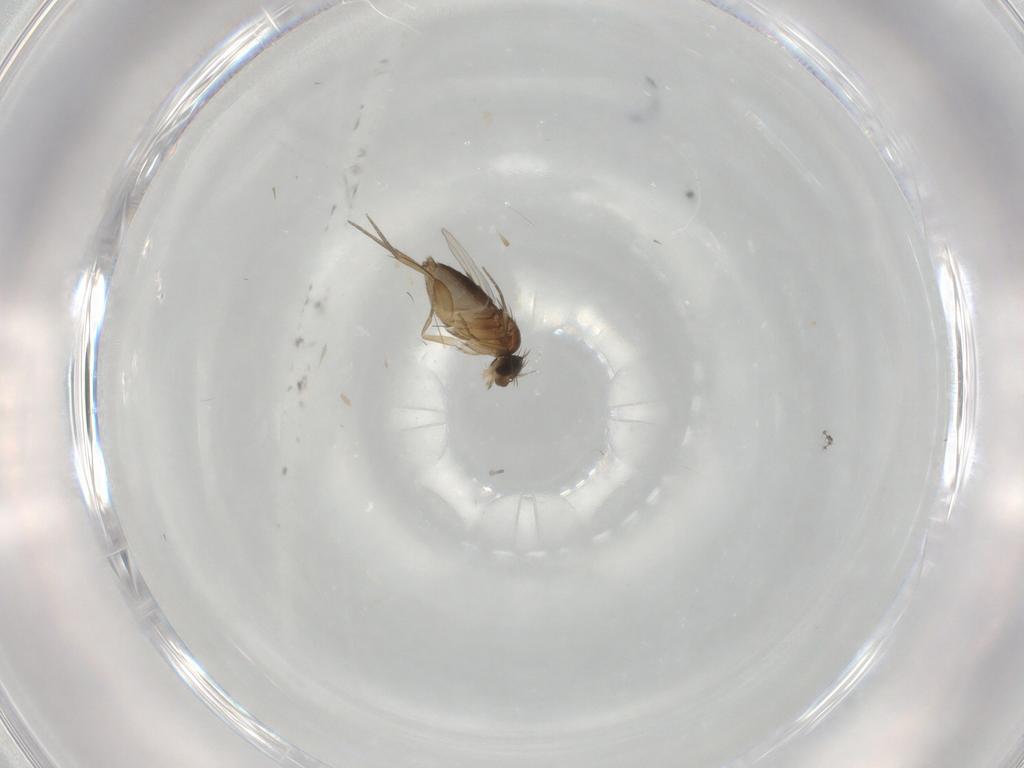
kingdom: Animalia
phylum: Arthropoda
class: Insecta
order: Diptera
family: Phoridae
